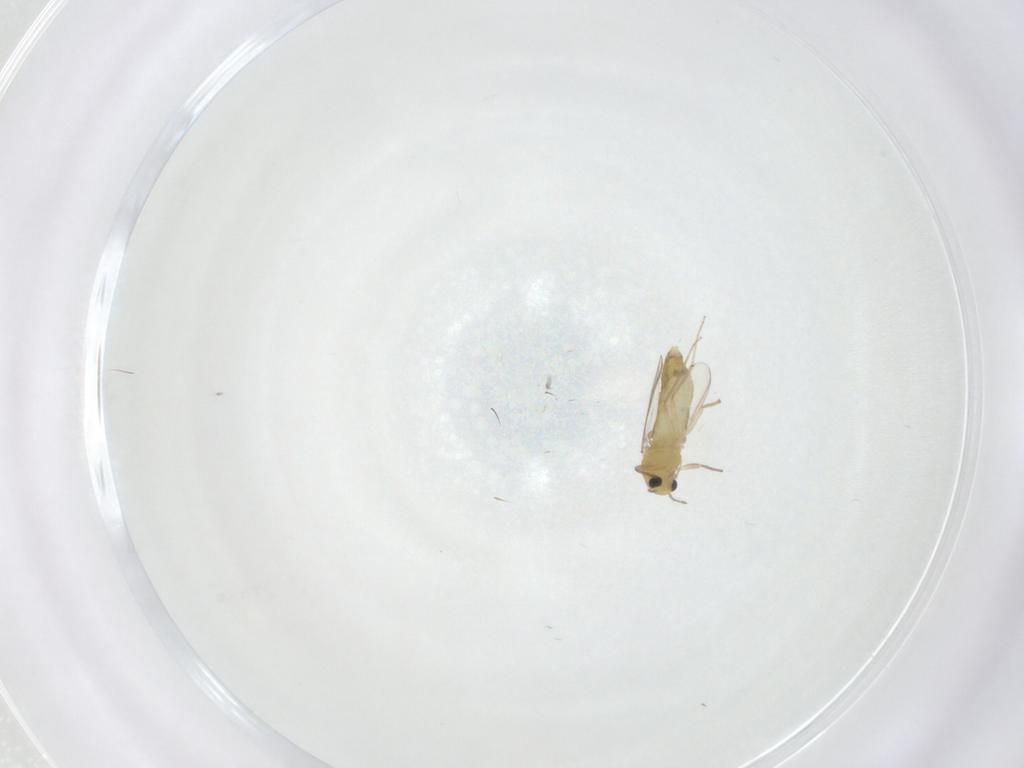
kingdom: Animalia
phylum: Arthropoda
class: Insecta
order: Diptera
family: Chironomidae
